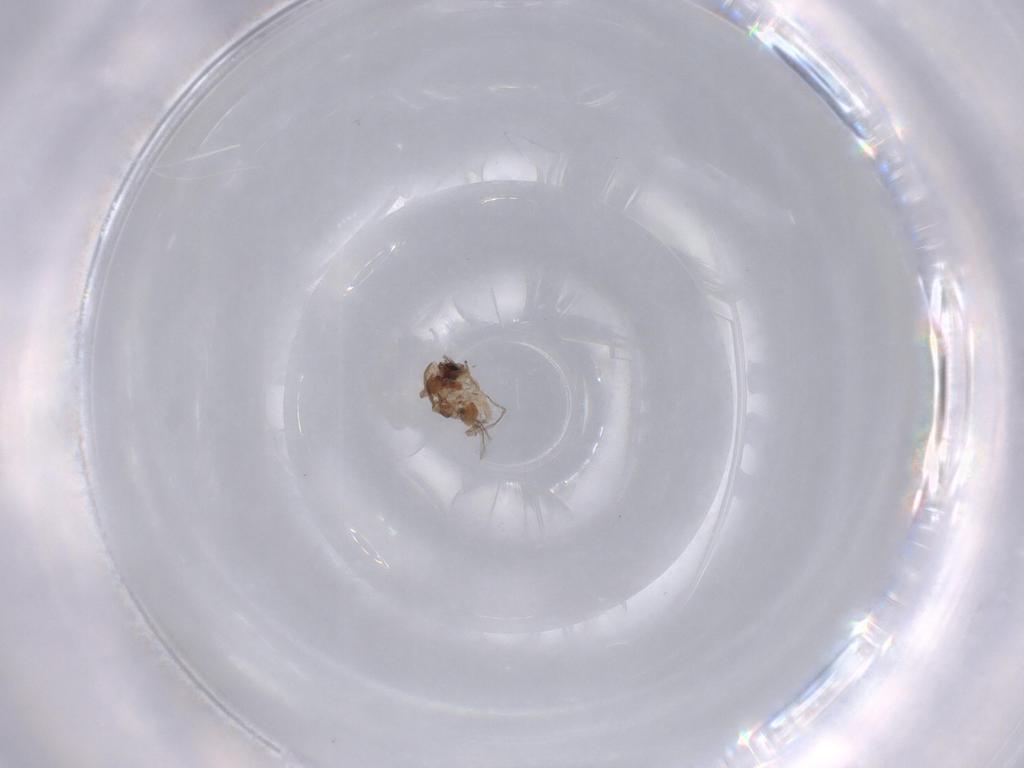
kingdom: Animalia
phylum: Arthropoda
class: Insecta
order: Diptera
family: Chironomidae
